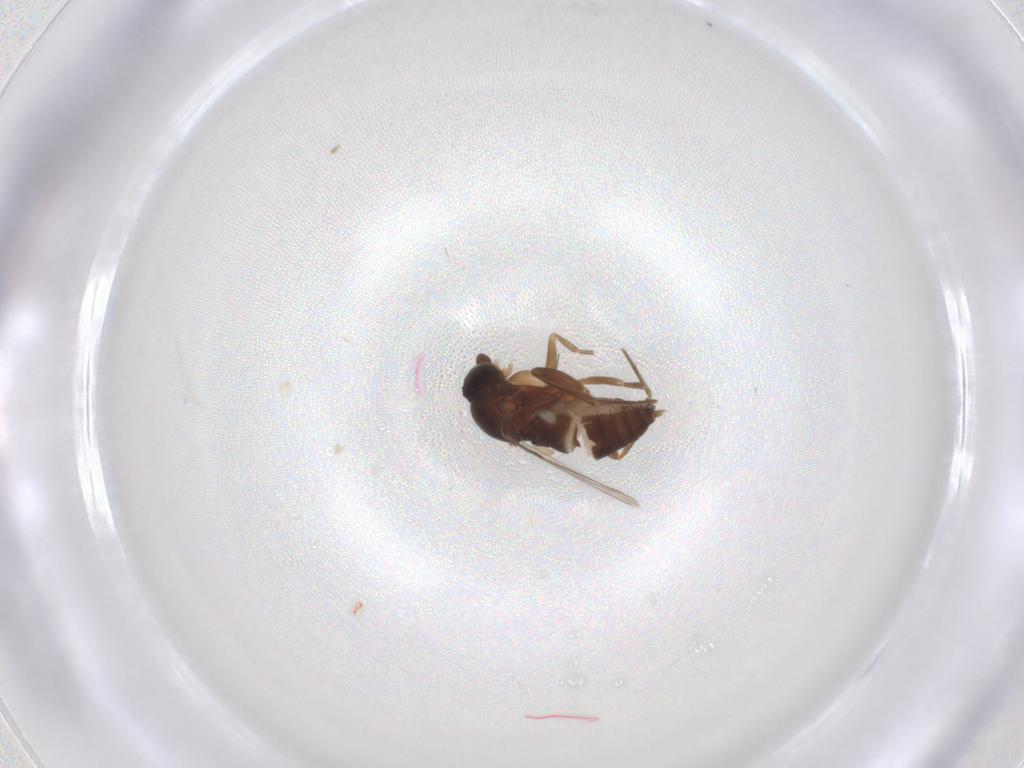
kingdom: Animalia
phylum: Arthropoda
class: Insecta
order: Diptera
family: Phoridae
